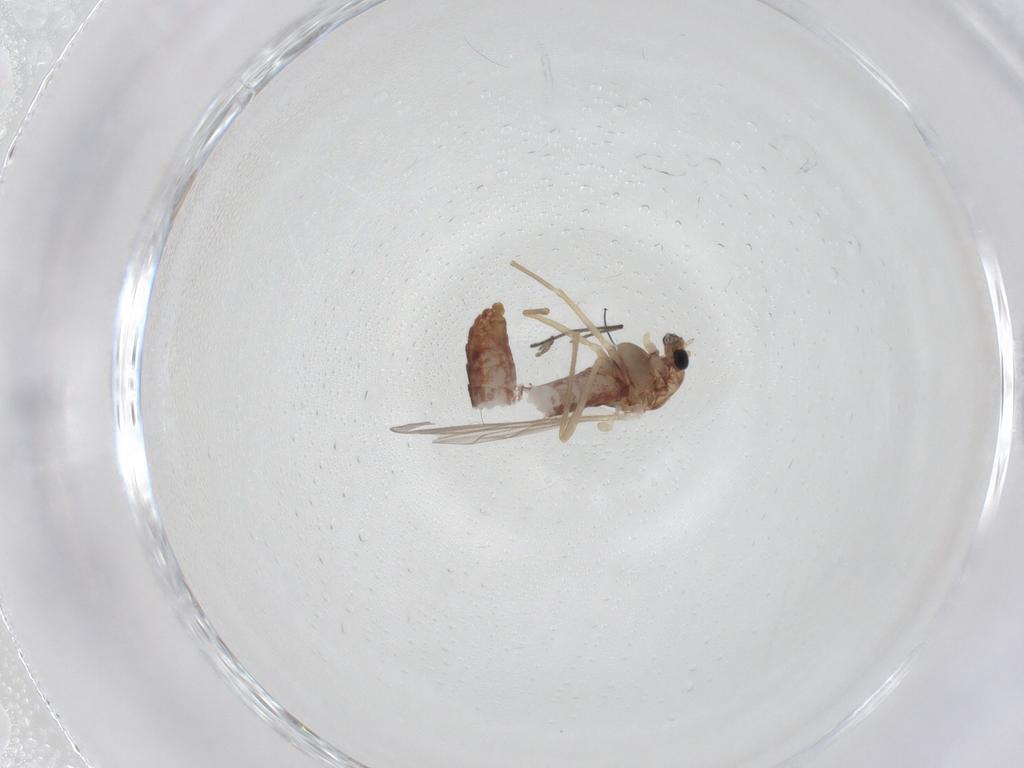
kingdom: Animalia
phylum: Arthropoda
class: Insecta
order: Diptera
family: Chironomidae
